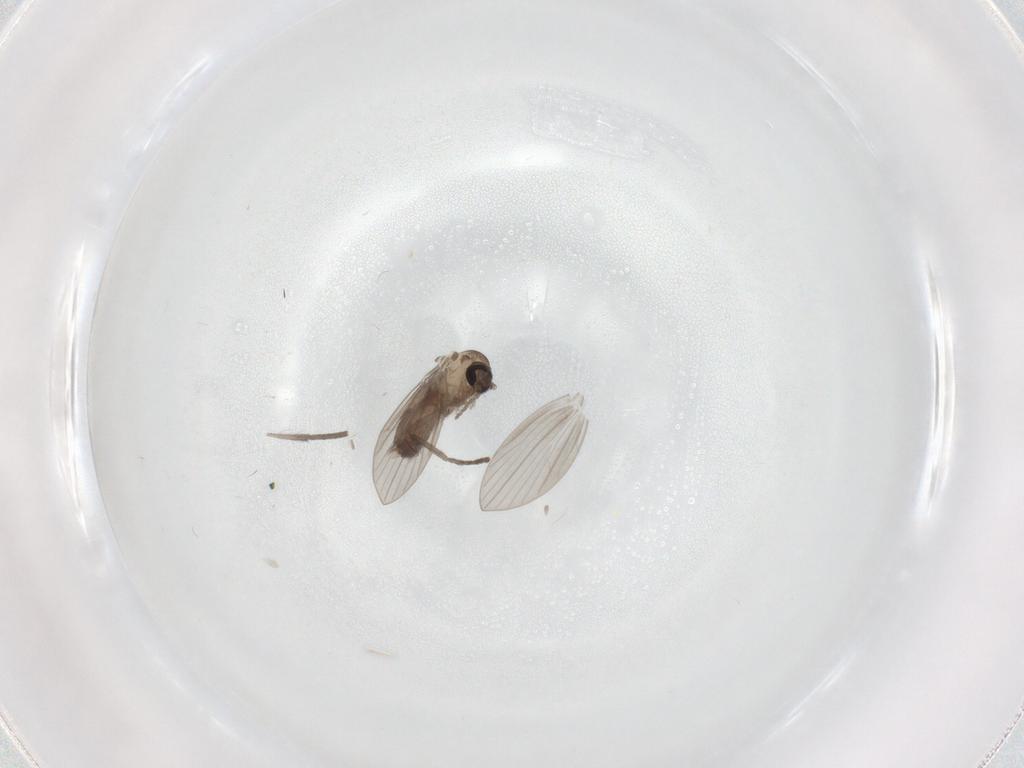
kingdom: Animalia
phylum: Arthropoda
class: Insecta
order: Diptera
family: Psychodidae
